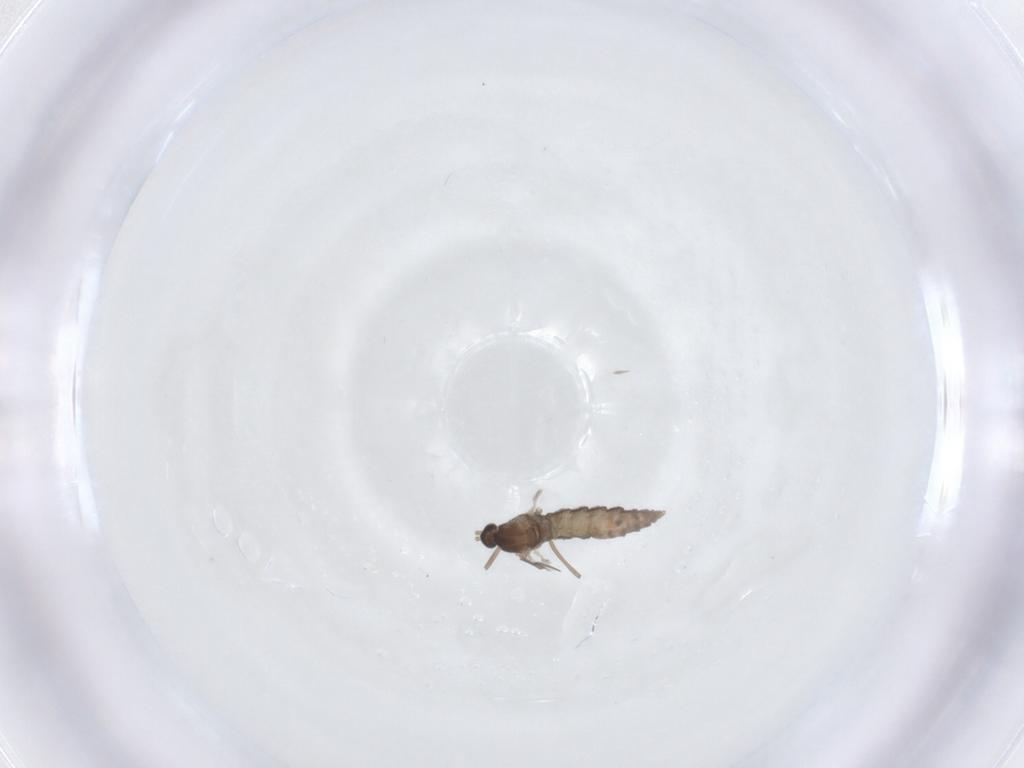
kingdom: Animalia
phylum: Arthropoda
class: Insecta
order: Diptera
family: Cecidomyiidae
